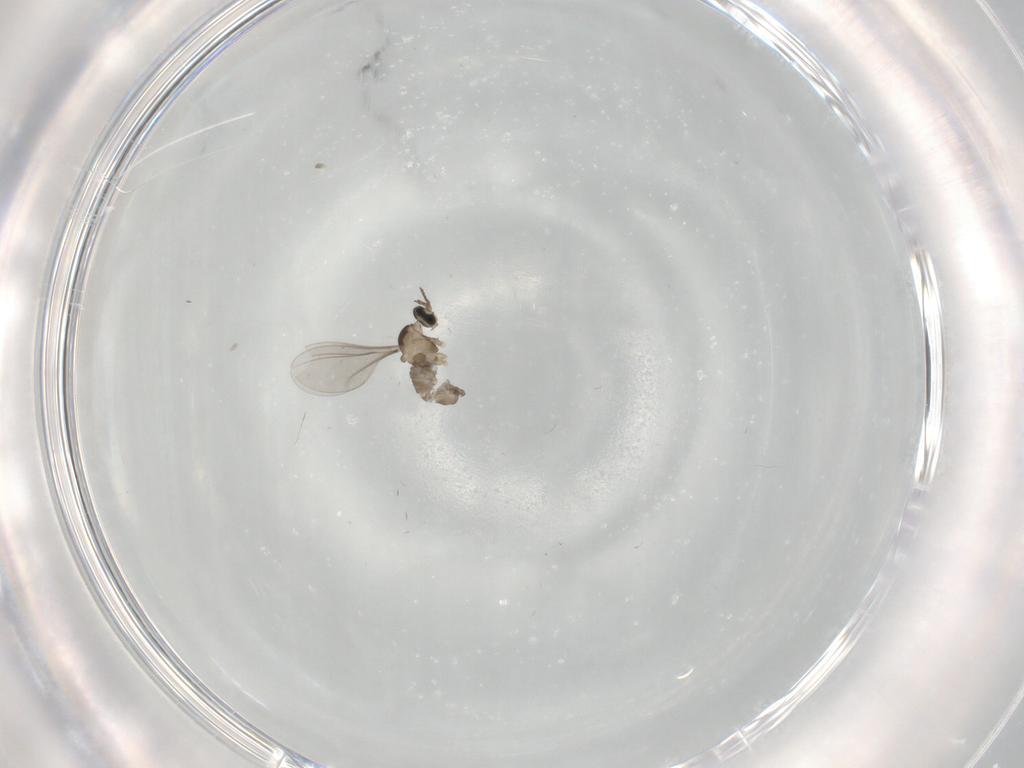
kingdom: Animalia
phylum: Arthropoda
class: Insecta
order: Diptera
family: Cecidomyiidae
